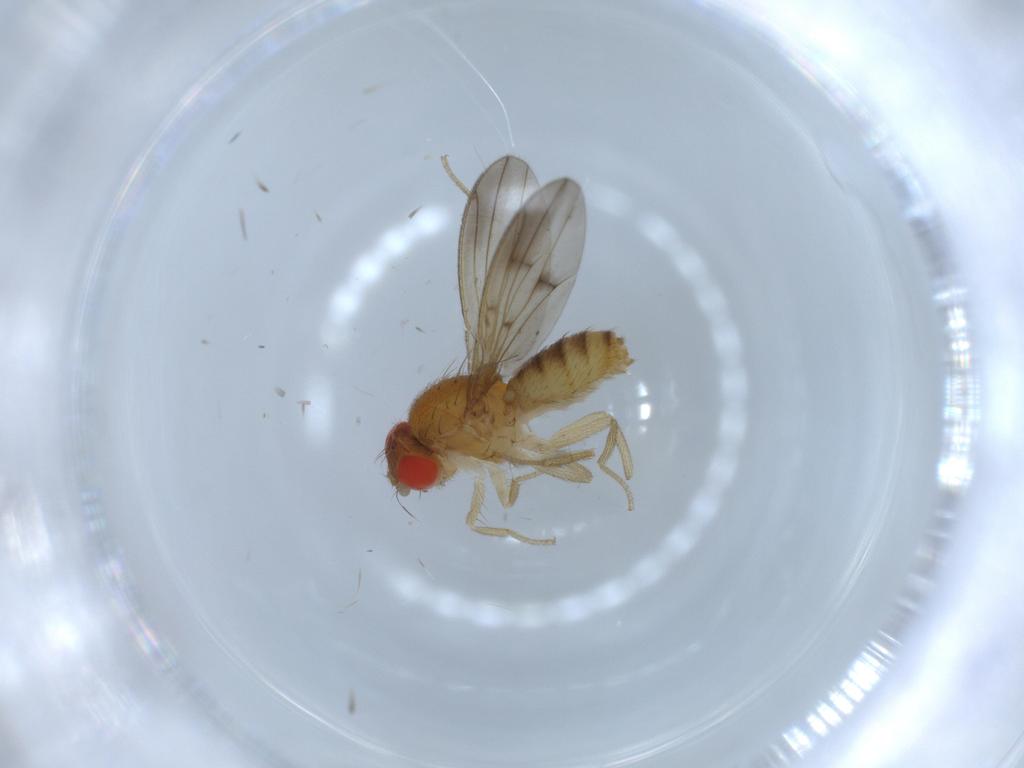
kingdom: Animalia
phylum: Arthropoda
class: Insecta
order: Diptera
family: Drosophilidae
